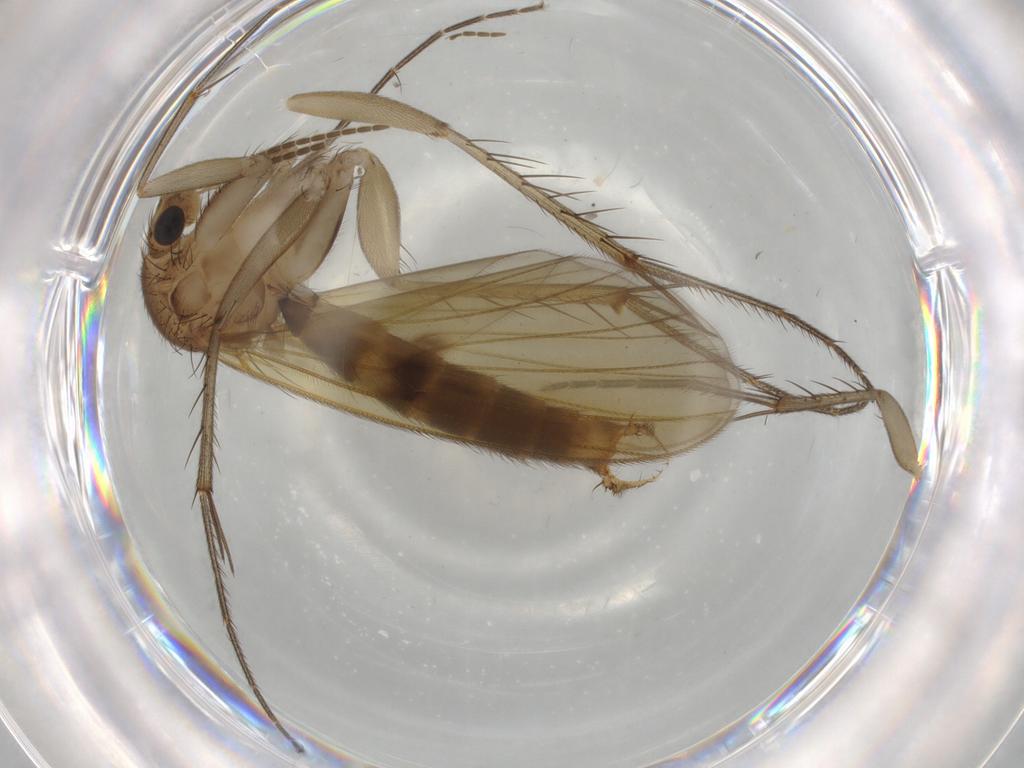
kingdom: Animalia
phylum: Arthropoda
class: Insecta
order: Diptera
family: Mycetophilidae
